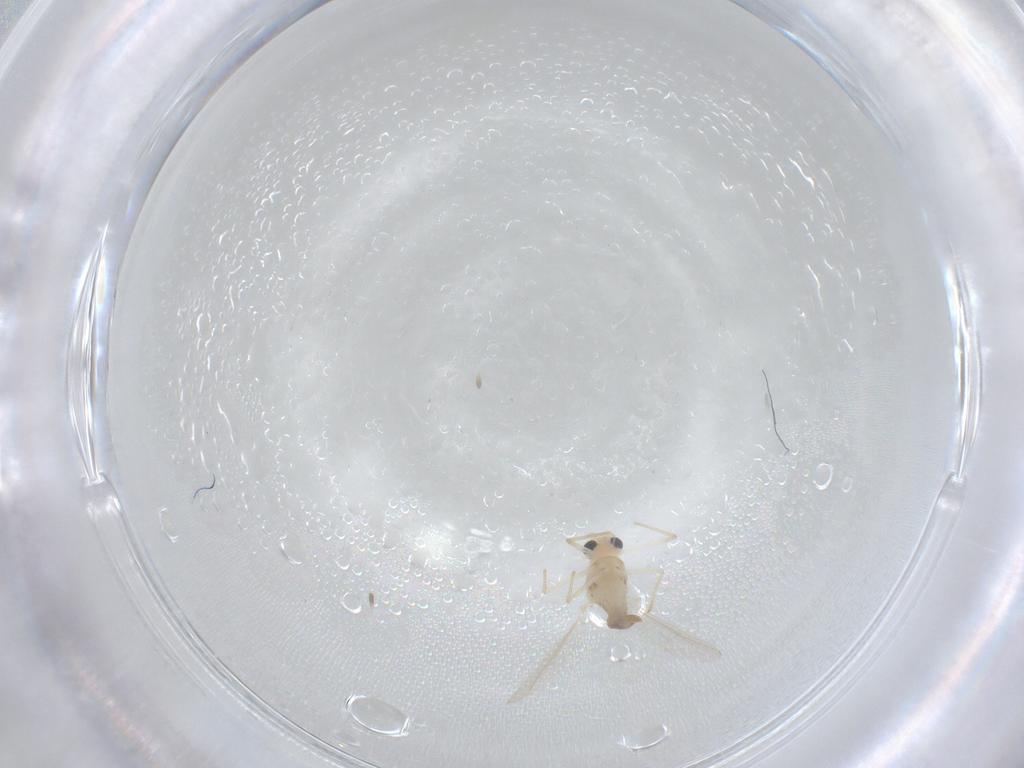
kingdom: Animalia
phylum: Arthropoda
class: Insecta
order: Diptera
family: Chironomidae
